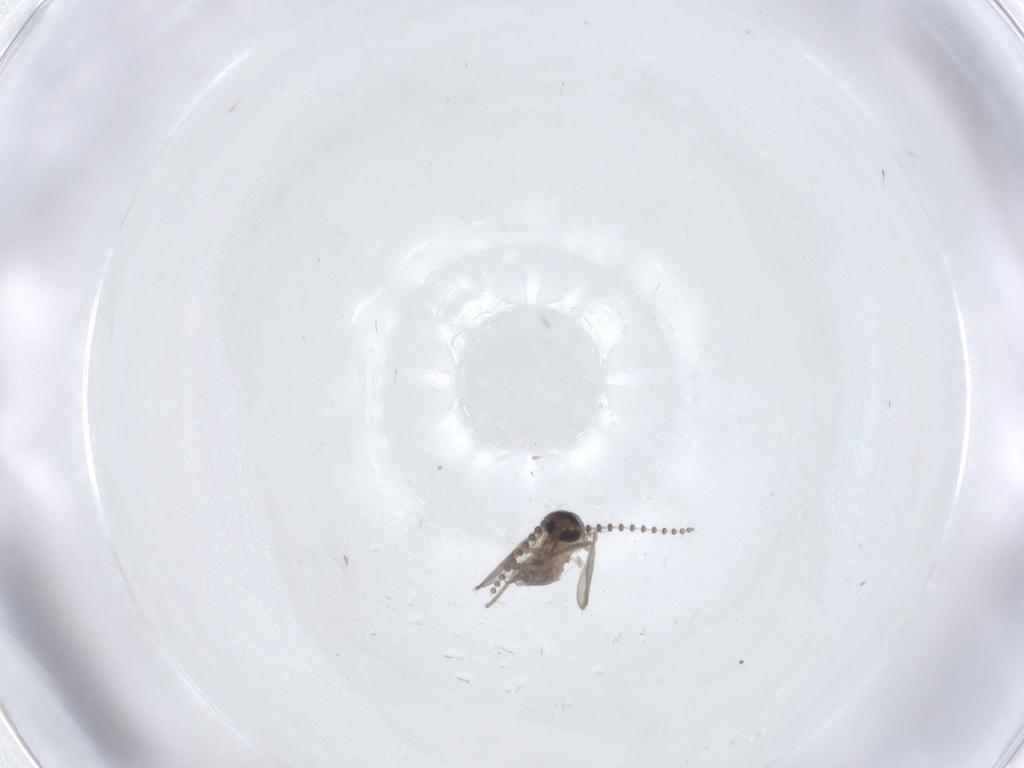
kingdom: Animalia
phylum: Arthropoda
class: Insecta
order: Diptera
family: Psychodidae
